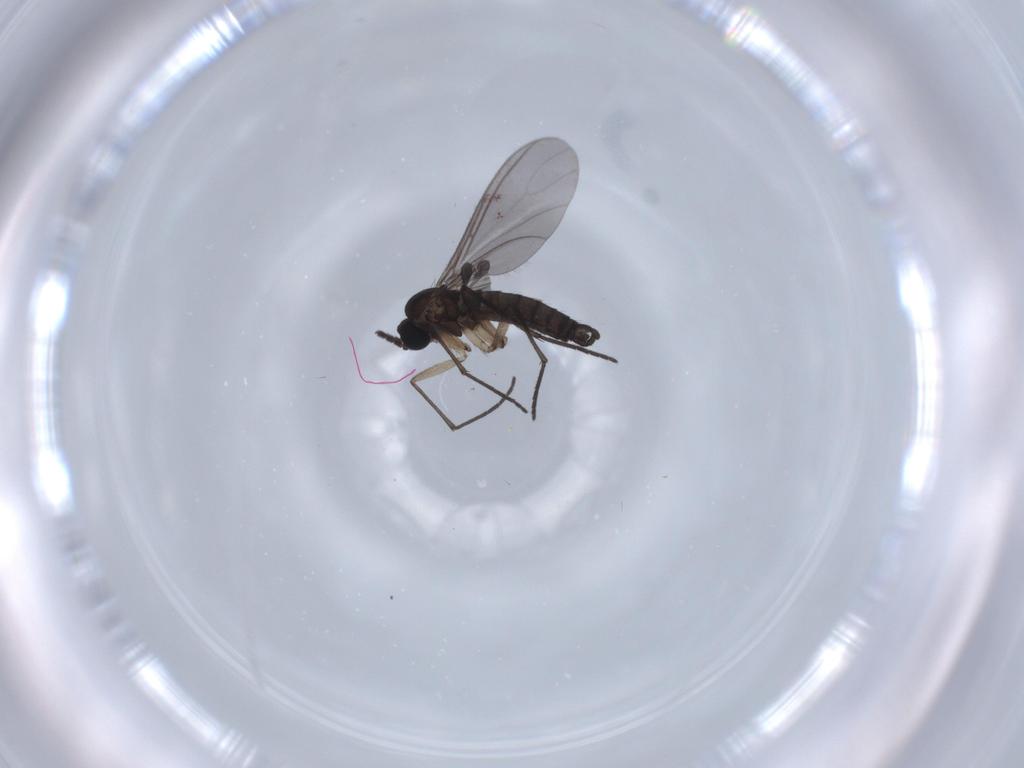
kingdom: Animalia
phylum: Arthropoda
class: Insecta
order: Diptera
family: Sciaridae
